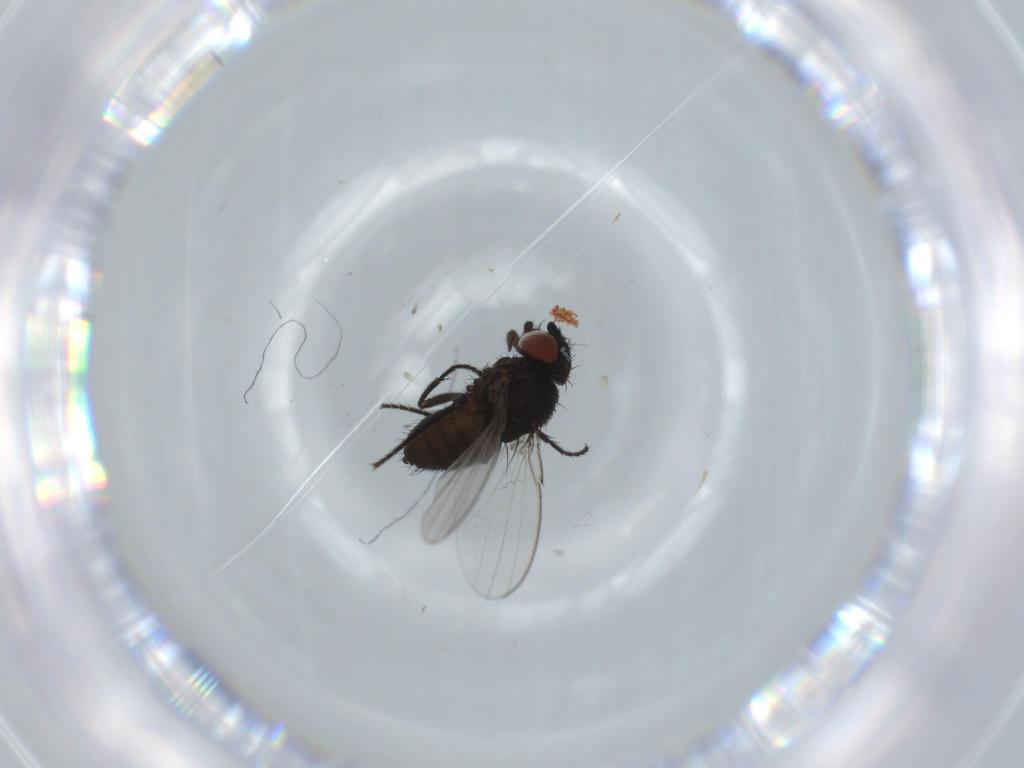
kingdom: Animalia
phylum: Arthropoda
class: Insecta
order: Diptera
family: Milichiidae
